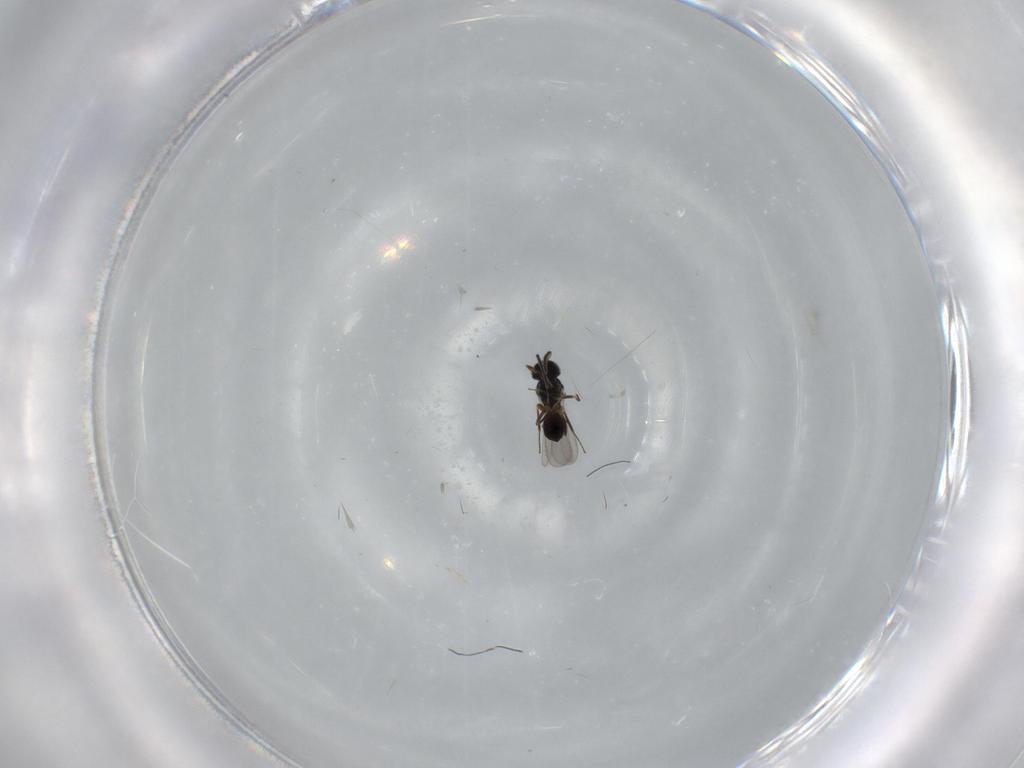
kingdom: Animalia
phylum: Arthropoda
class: Insecta
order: Hymenoptera
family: Scelionidae
